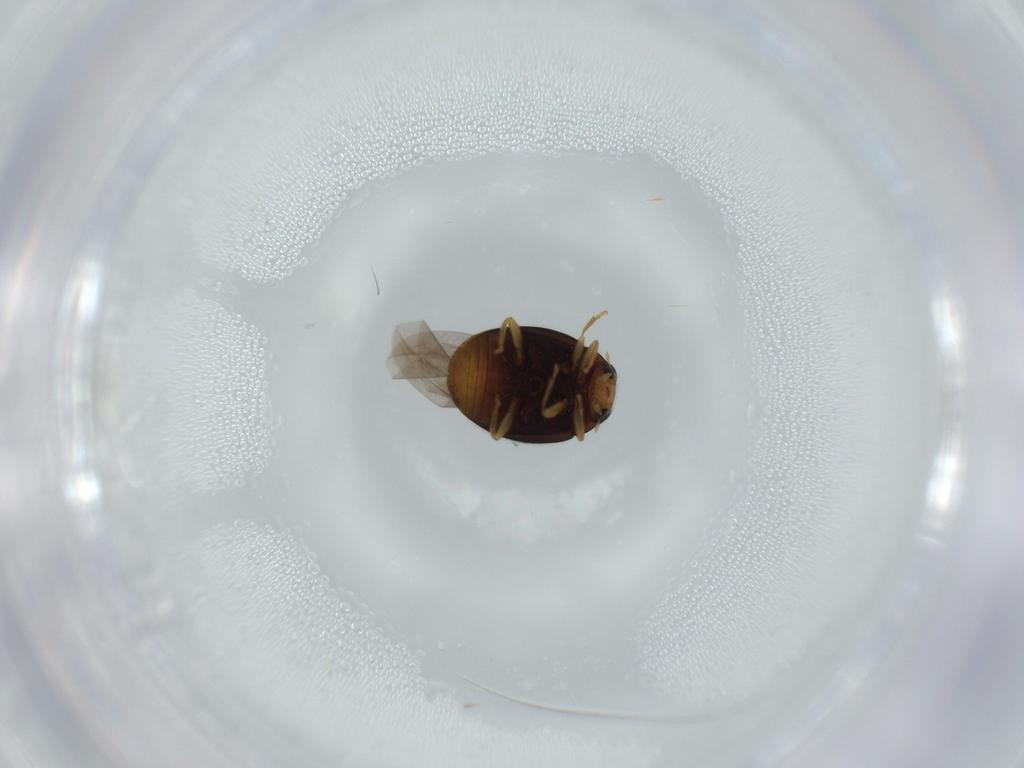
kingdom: Animalia
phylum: Arthropoda
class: Insecta
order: Coleoptera
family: Coccinellidae
